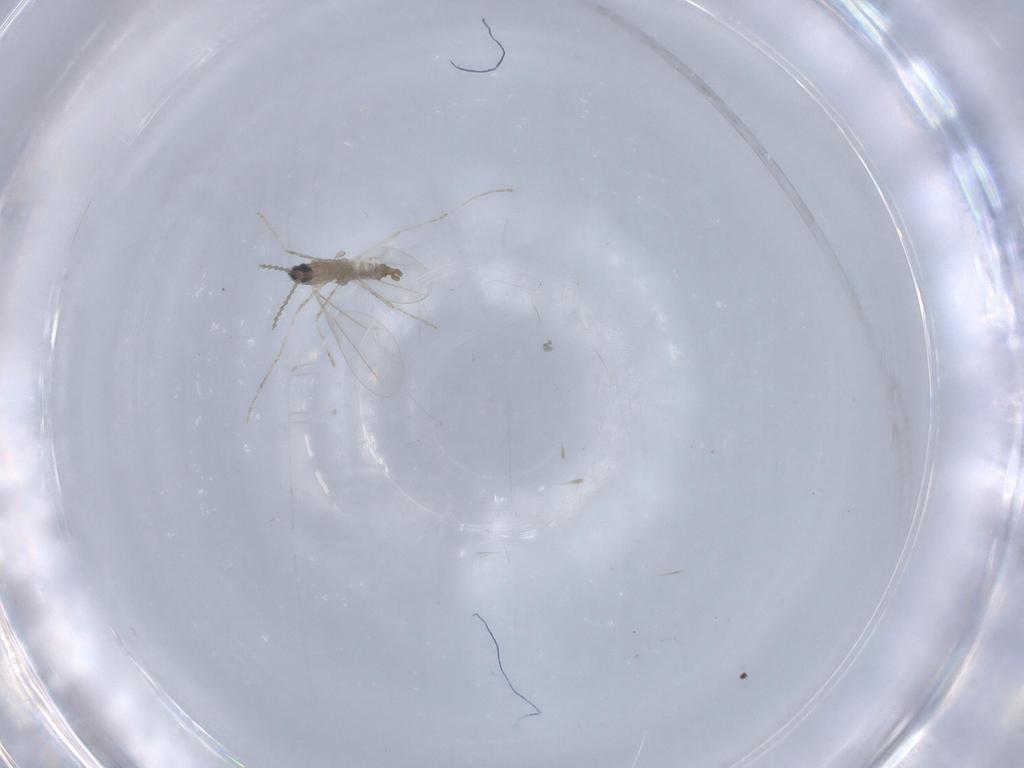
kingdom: Animalia
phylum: Arthropoda
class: Insecta
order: Diptera
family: Cecidomyiidae
